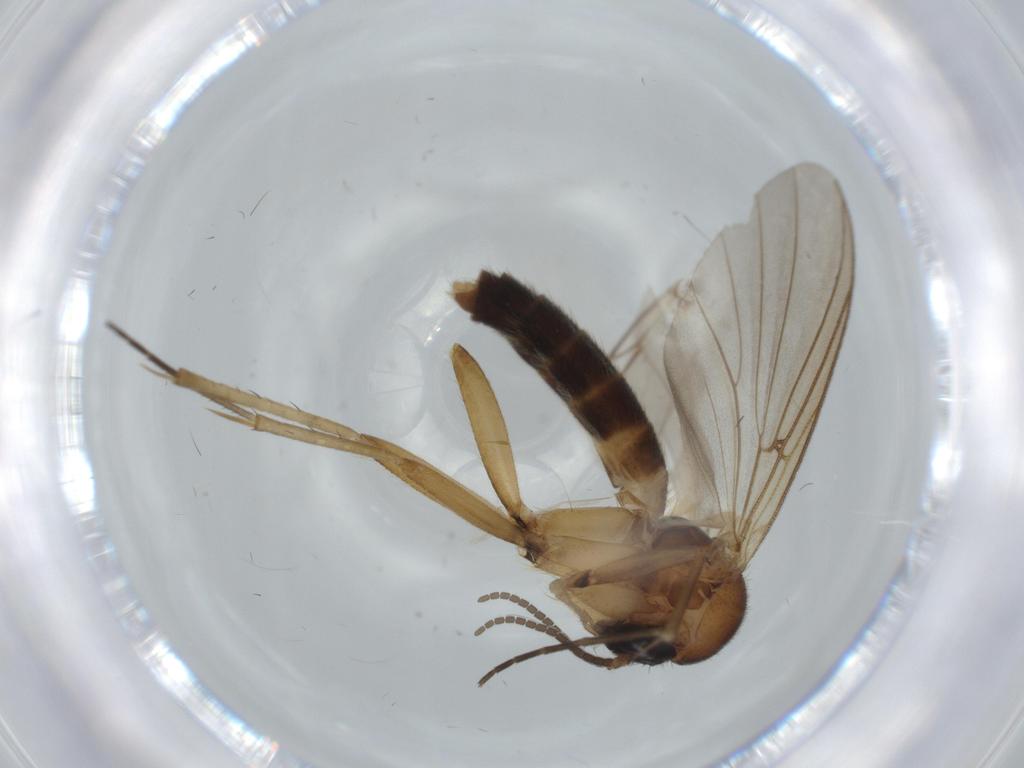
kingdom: Animalia
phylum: Arthropoda
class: Insecta
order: Diptera
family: Mycetophilidae
